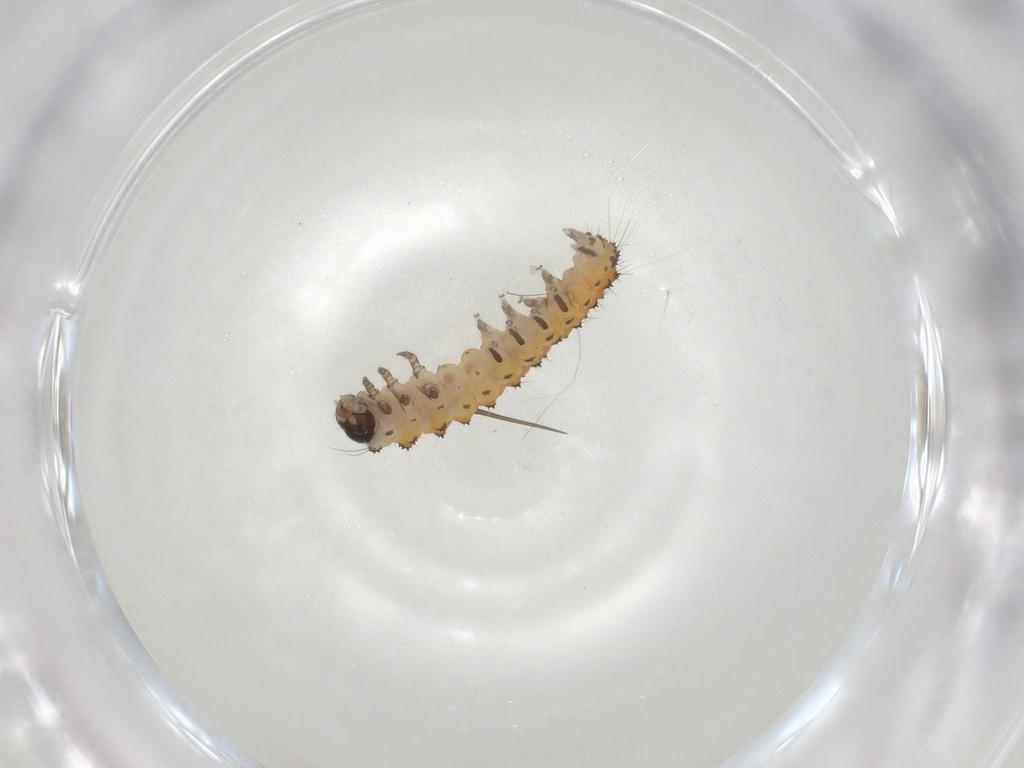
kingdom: Animalia
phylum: Arthropoda
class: Insecta
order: Lepidoptera
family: Erebidae
